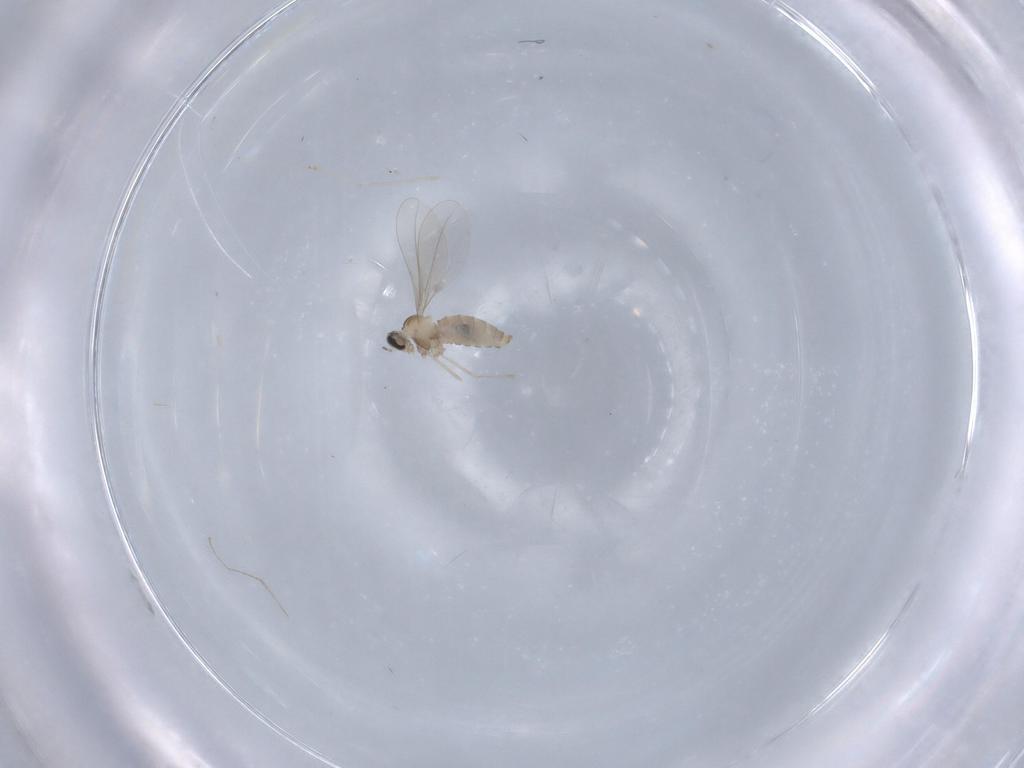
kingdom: Animalia
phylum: Arthropoda
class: Insecta
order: Diptera
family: Cecidomyiidae
